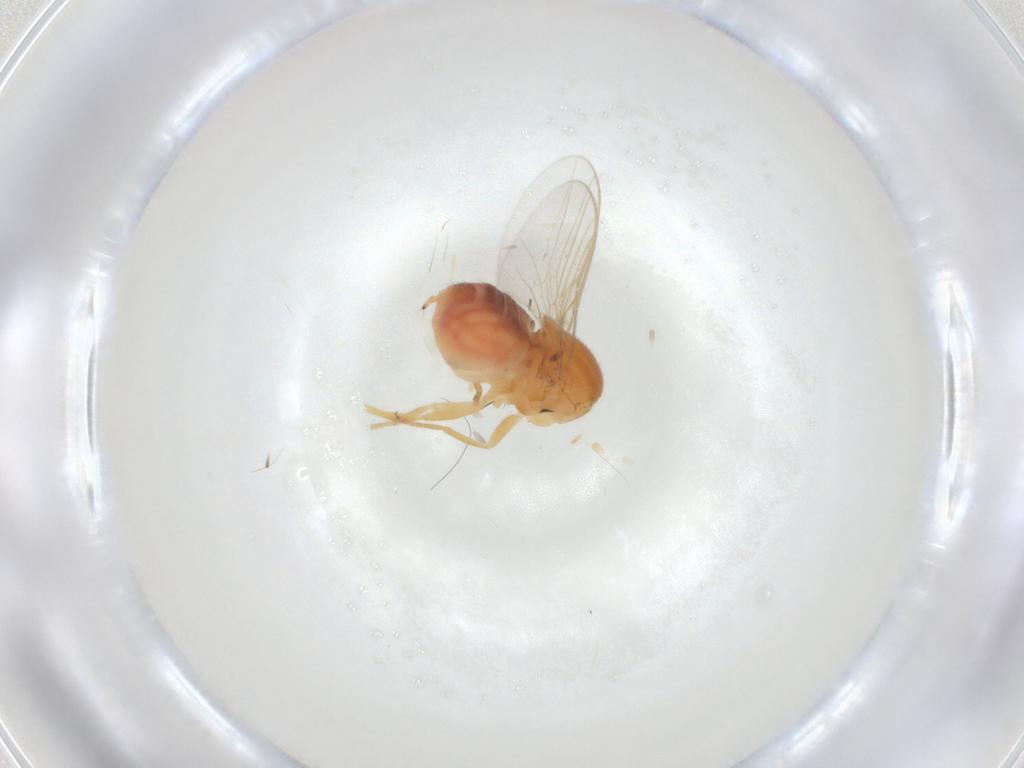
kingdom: Animalia
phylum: Arthropoda
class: Insecta
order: Diptera
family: Chloropidae
